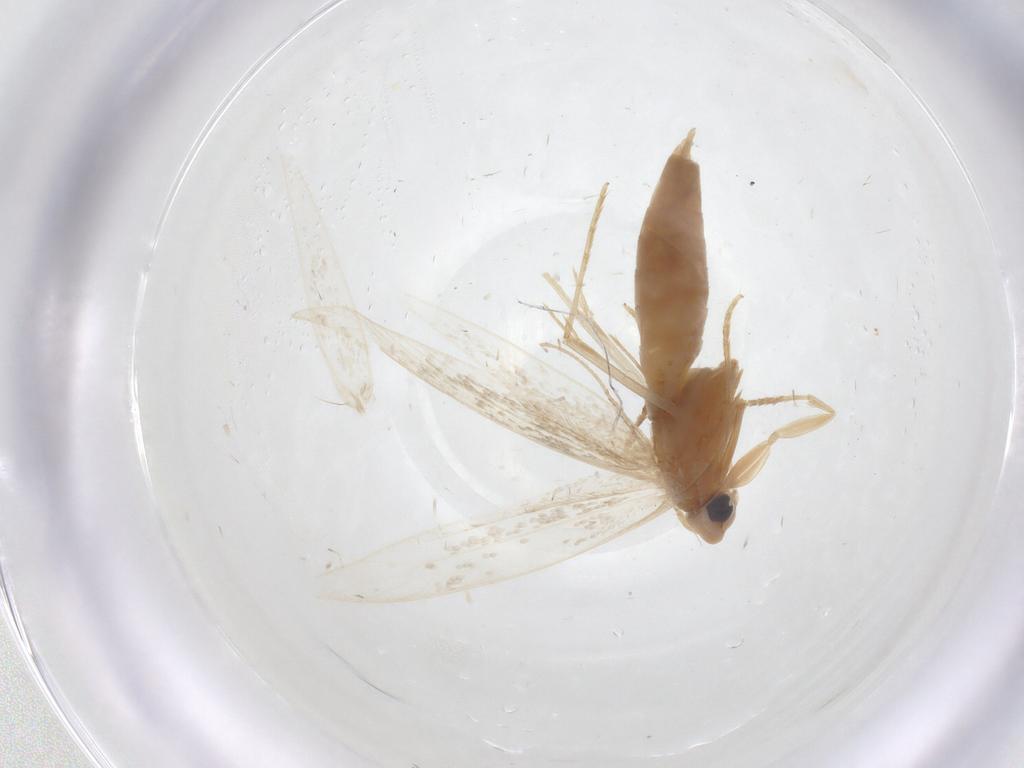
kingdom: Animalia
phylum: Arthropoda
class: Insecta
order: Lepidoptera
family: Tineidae
